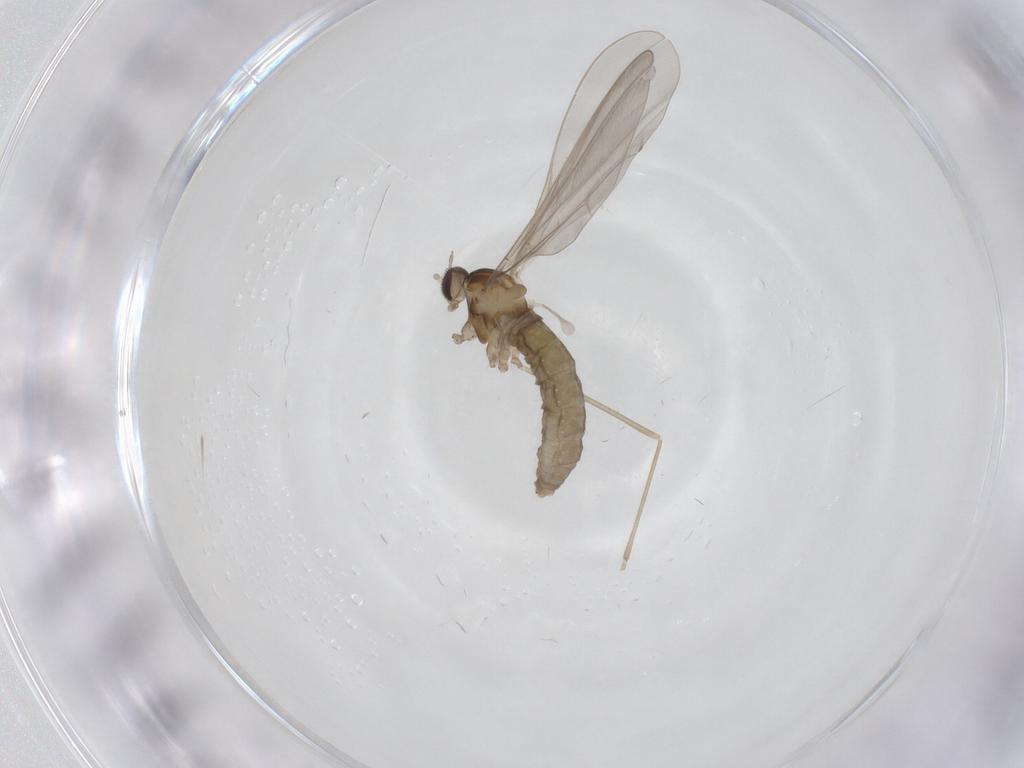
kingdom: Animalia
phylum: Arthropoda
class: Insecta
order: Diptera
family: Cecidomyiidae
